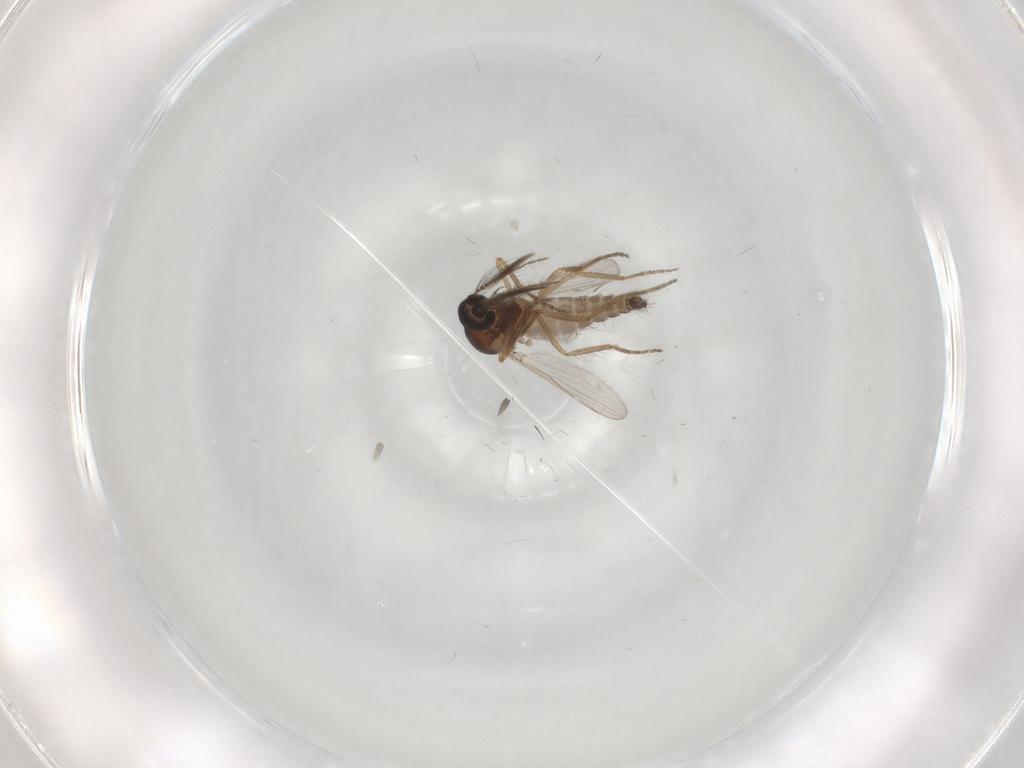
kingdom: Animalia
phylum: Arthropoda
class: Insecta
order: Diptera
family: Ceratopogonidae
